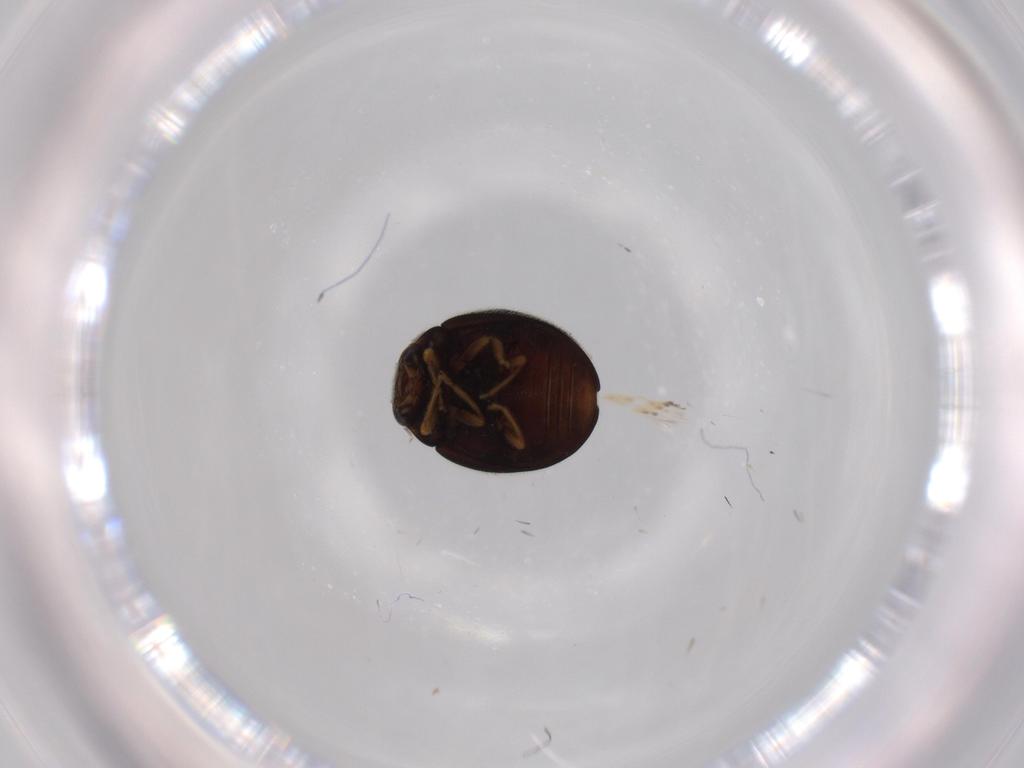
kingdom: Animalia
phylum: Arthropoda
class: Insecta
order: Coleoptera
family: Coccinellidae
